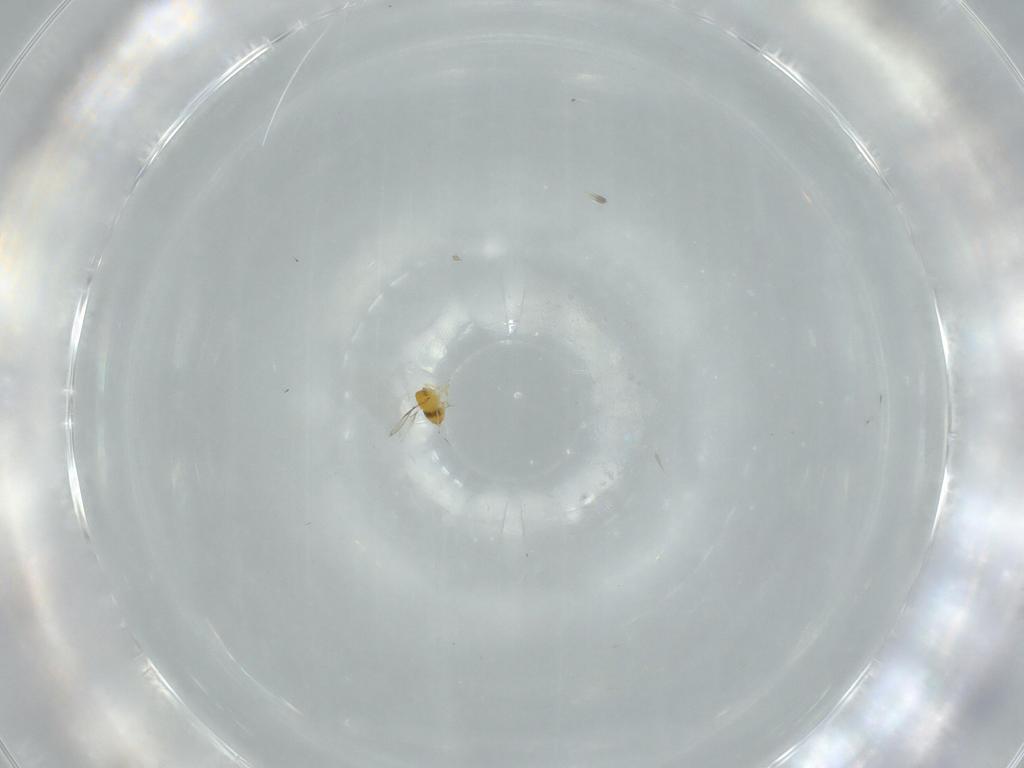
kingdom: Animalia
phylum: Arthropoda
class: Insecta
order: Hymenoptera
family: Trichogrammatidae
